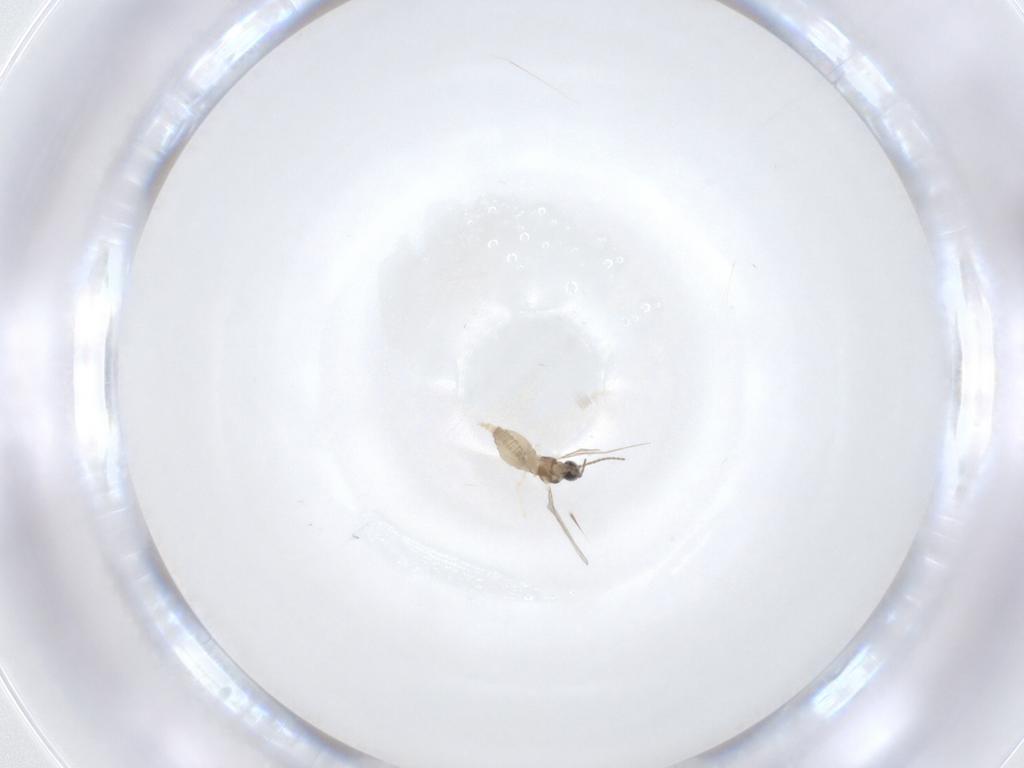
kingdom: Animalia
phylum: Arthropoda
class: Insecta
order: Diptera
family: Cecidomyiidae
